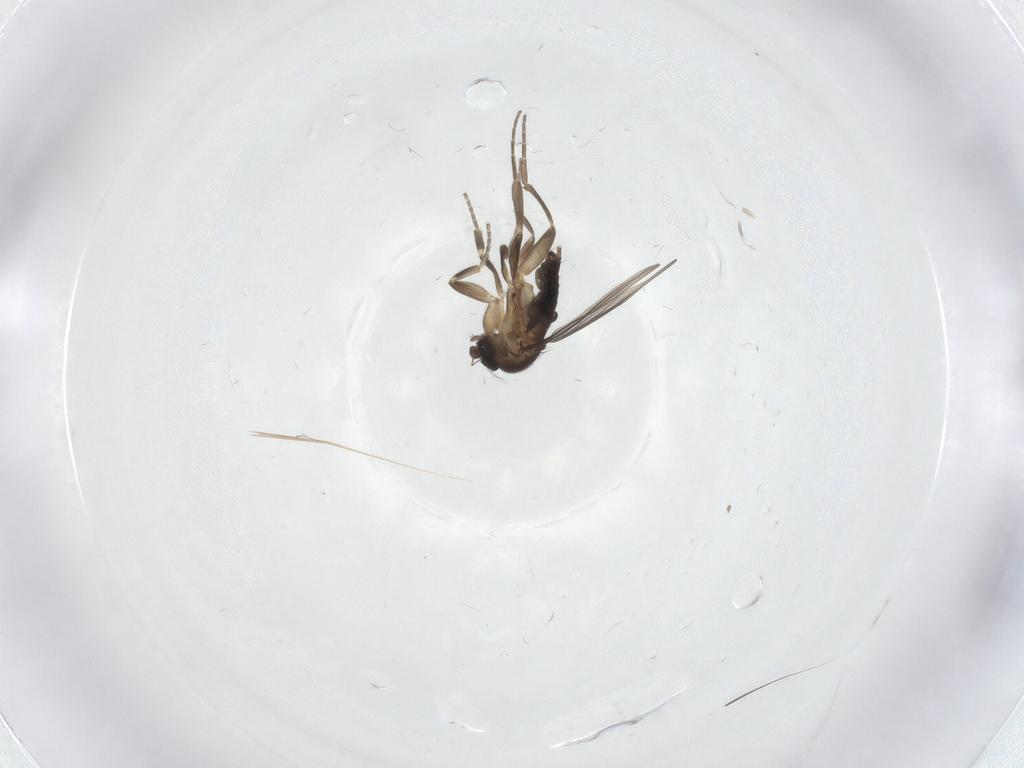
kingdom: Animalia
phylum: Arthropoda
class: Insecta
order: Diptera
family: Phoridae
